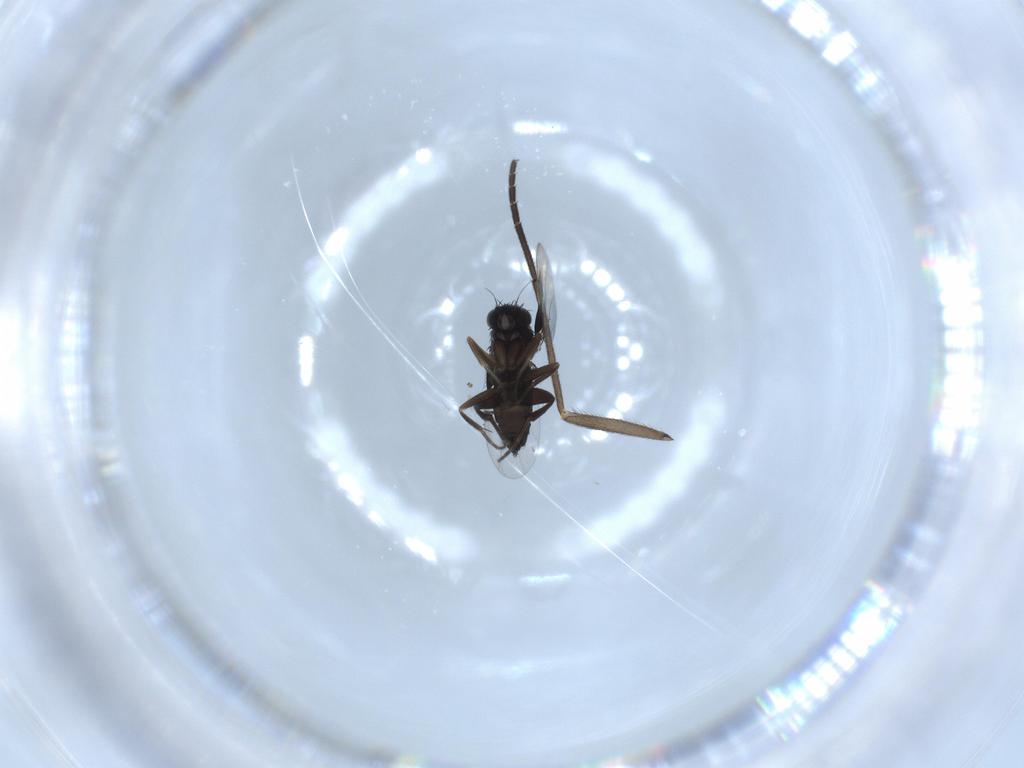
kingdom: Animalia
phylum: Arthropoda
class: Insecta
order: Diptera
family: Phoridae
